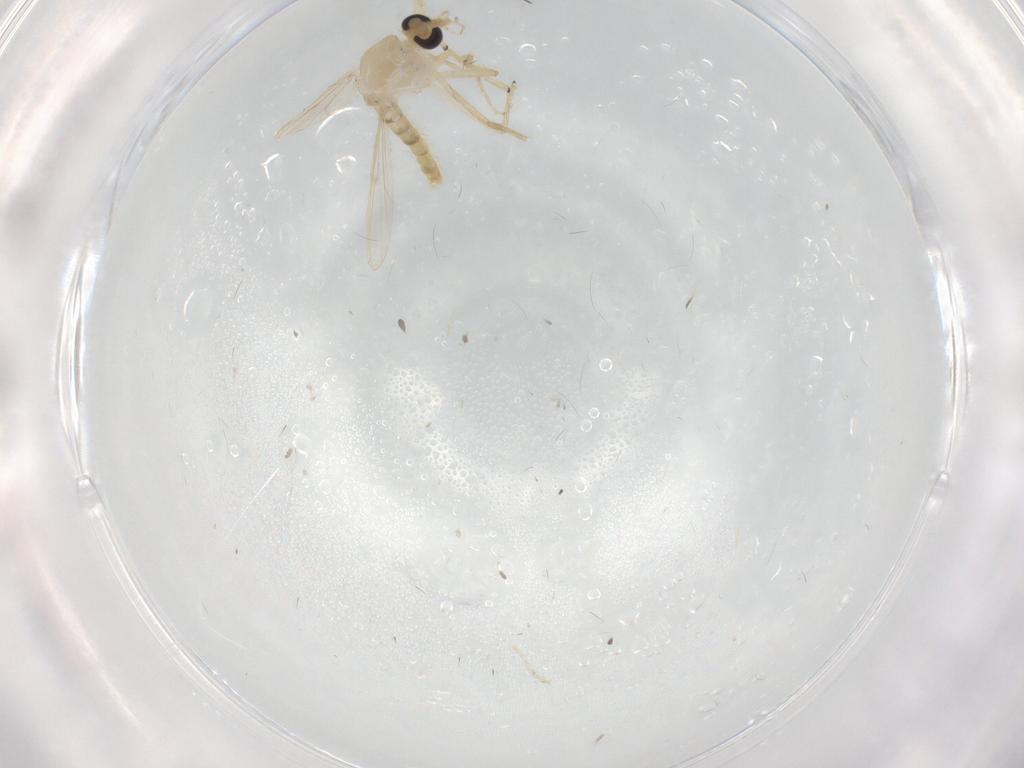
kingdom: Animalia
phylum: Arthropoda
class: Insecta
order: Diptera
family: Chironomidae
